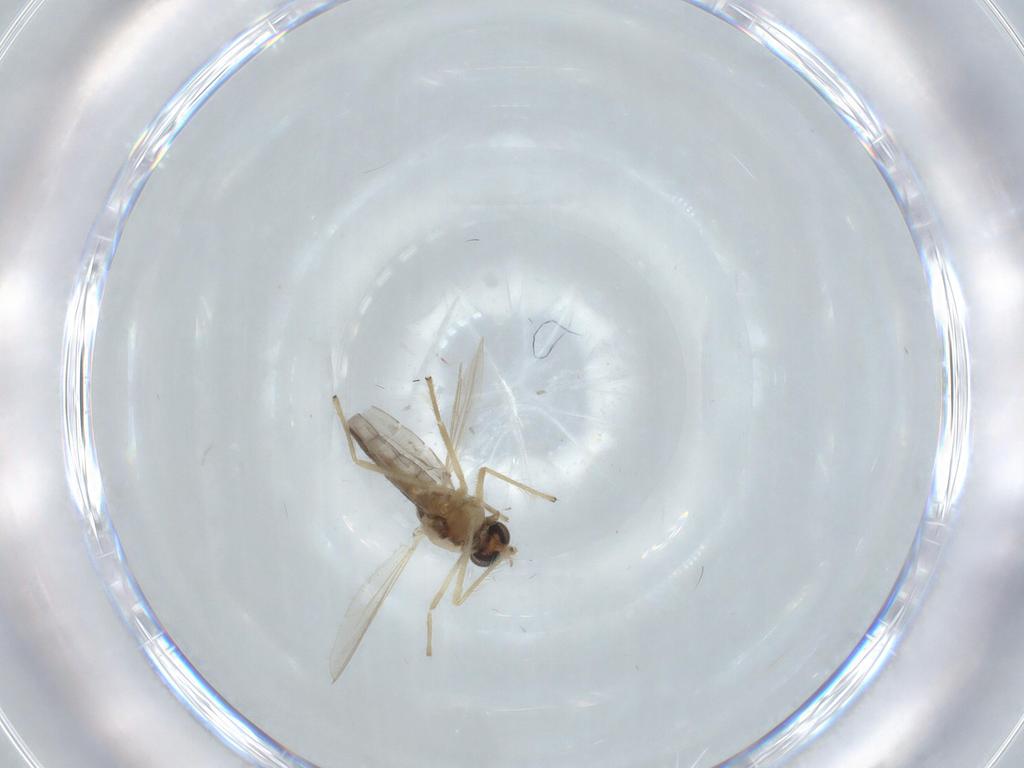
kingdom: Animalia
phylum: Arthropoda
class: Insecta
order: Diptera
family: Chironomidae
